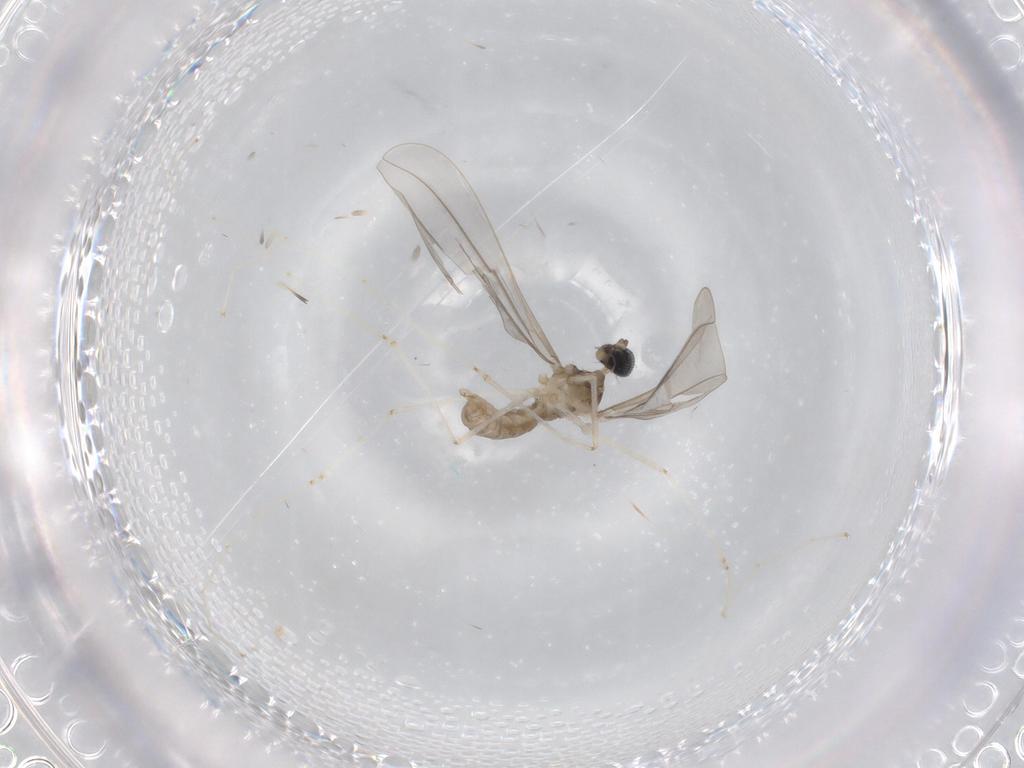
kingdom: Animalia
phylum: Arthropoda
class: Insecta
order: Diptera
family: Cecidomyiidae
